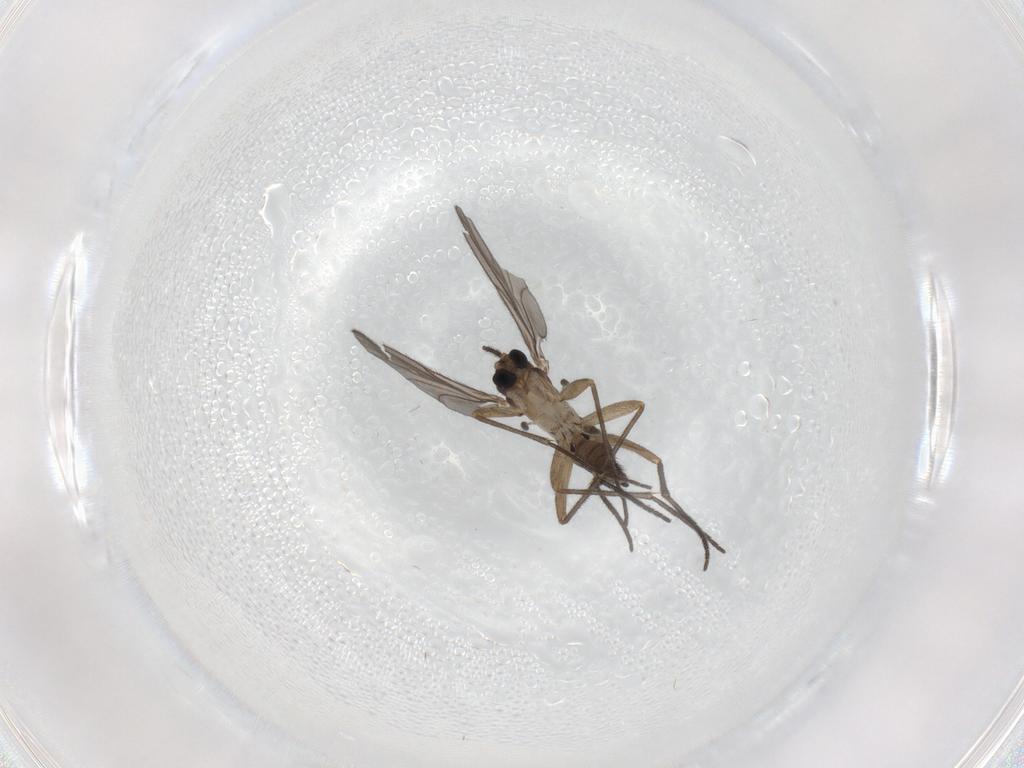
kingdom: Animalia
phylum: Arthropoda
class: Insecta
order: Diptera
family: Sciaridae
